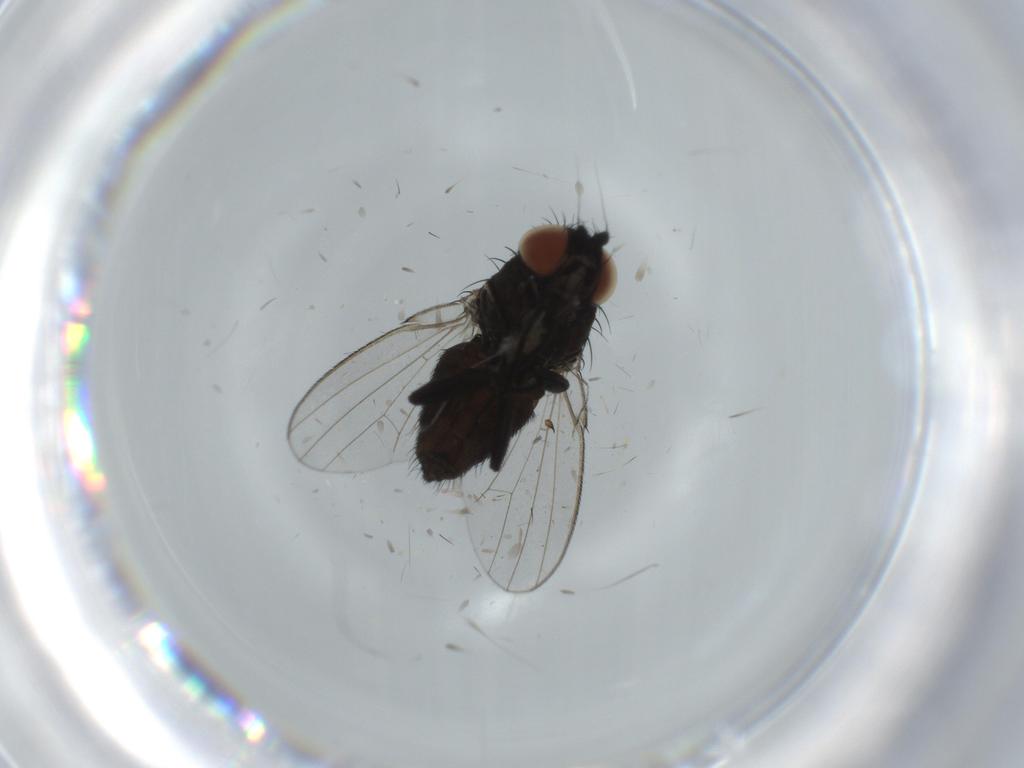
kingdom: Animalia
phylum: Arthropoda
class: Insecta
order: Diptera
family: Milichiidae
